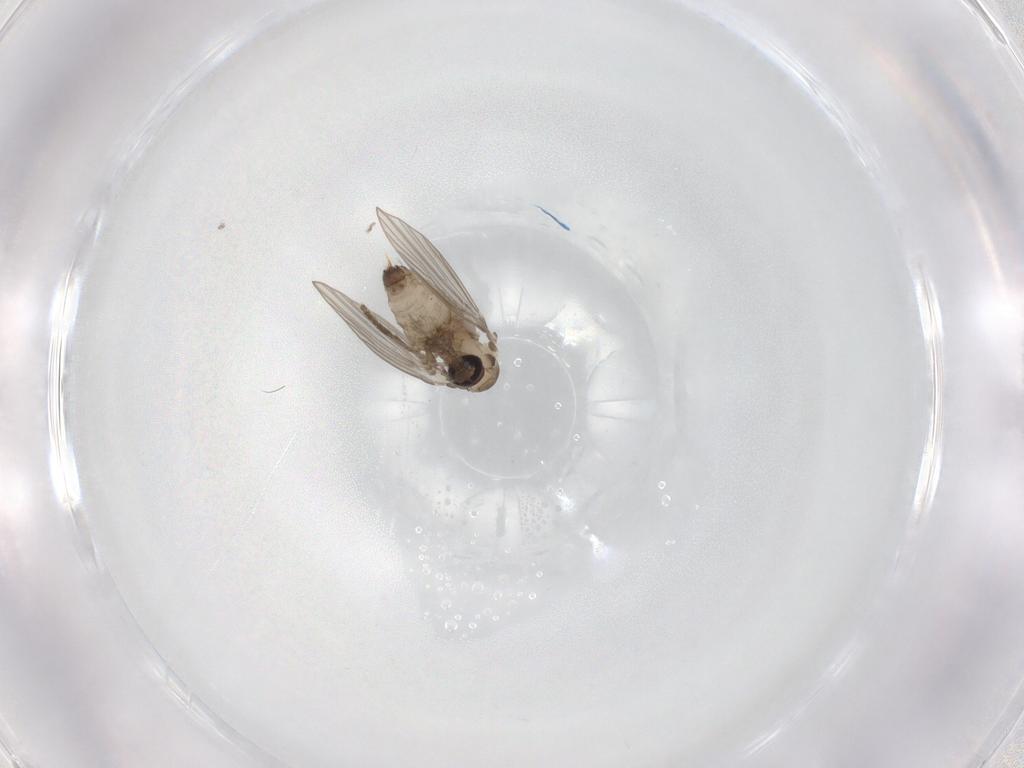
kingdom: Animalia
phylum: Arthropoda
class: Insecta
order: Diptera
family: Psychodidae
